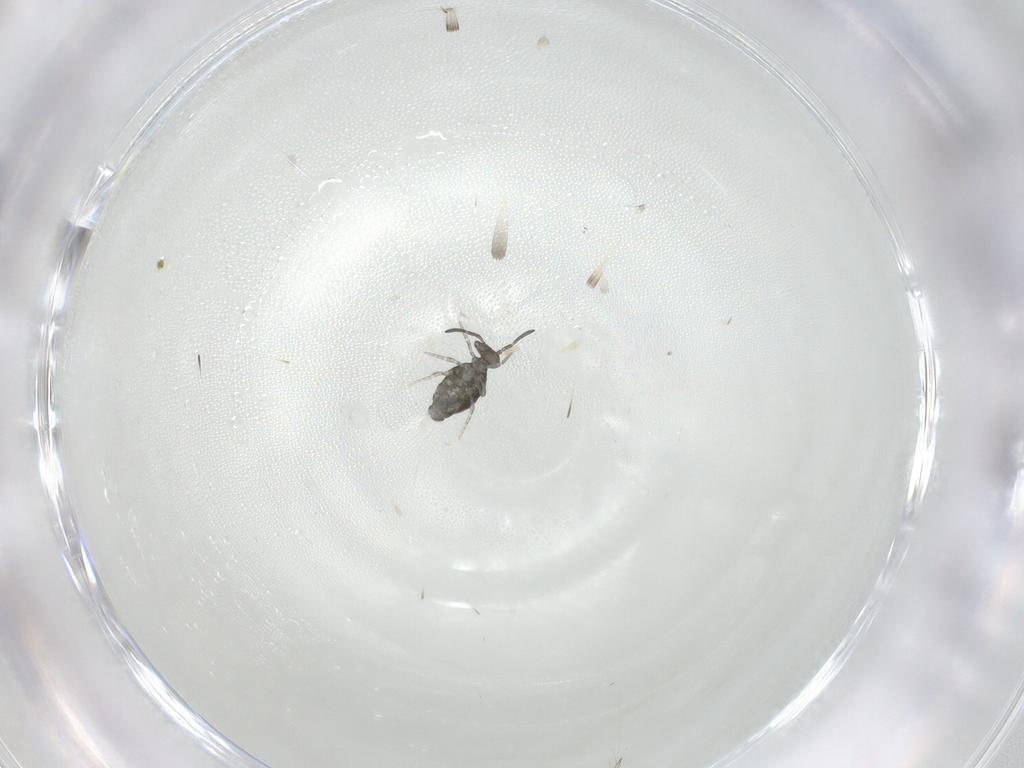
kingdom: Animalia
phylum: Arthropoda
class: Collembola
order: Symphypleona
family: Katiannidae
